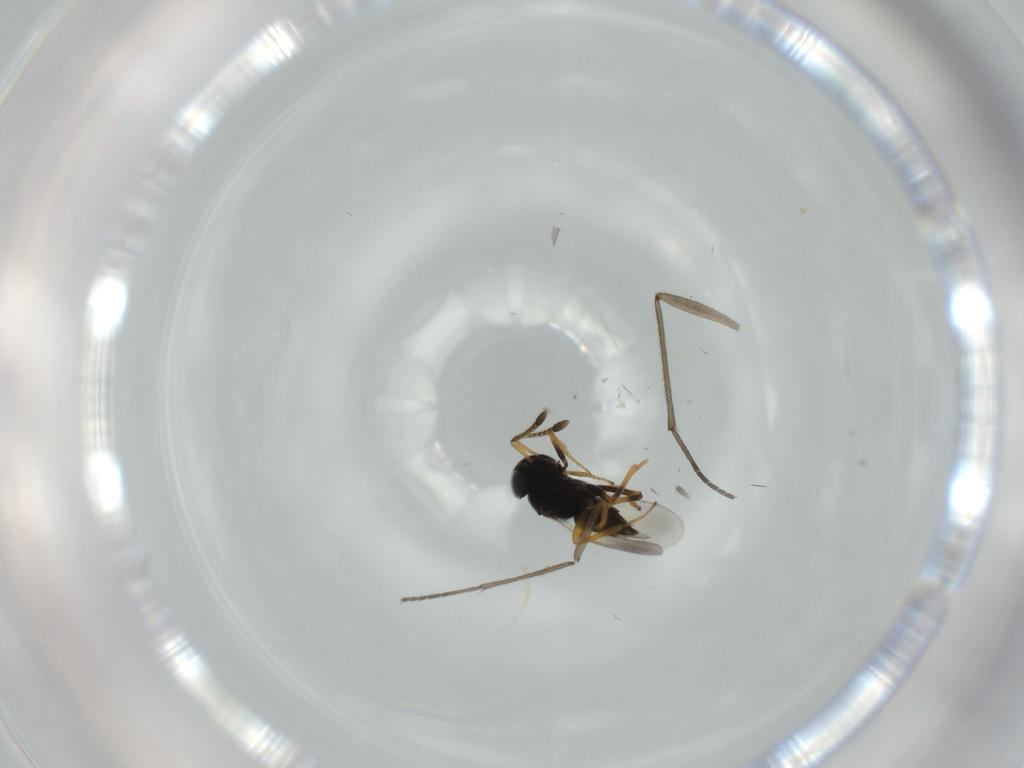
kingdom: Animalia
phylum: Arthropoda
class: Insecta
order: Hymenoptera
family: Encyrtidae
